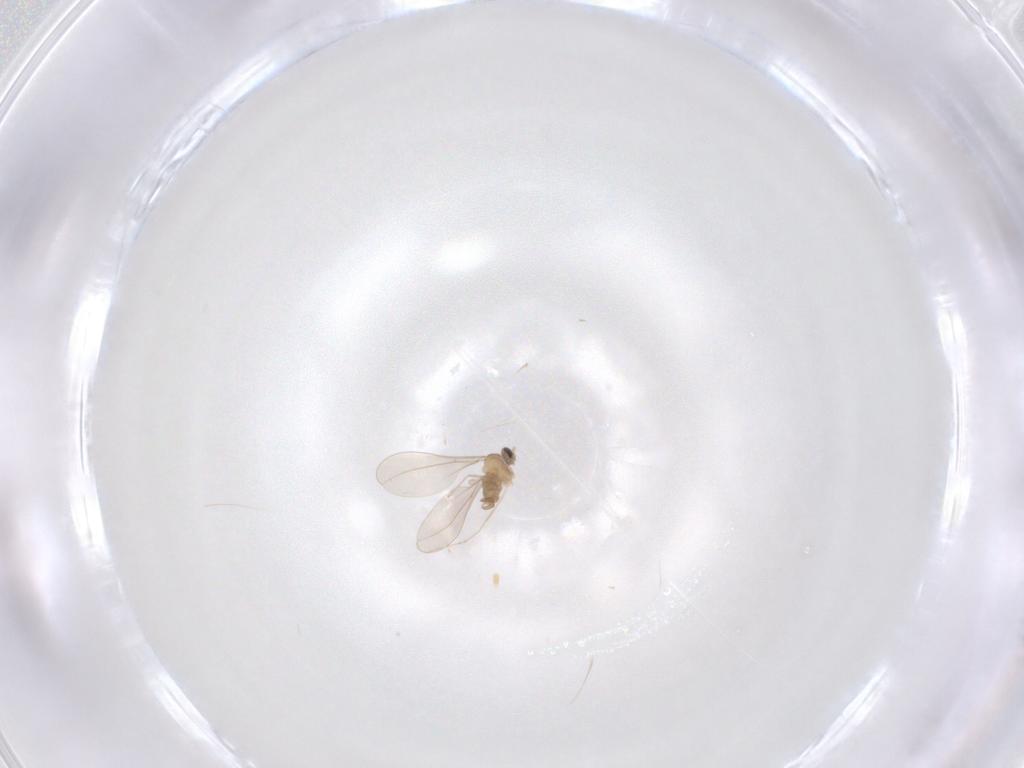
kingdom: Animalia
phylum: Arthropoda
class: Insecta
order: Diptera
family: Cecidomyiidae
